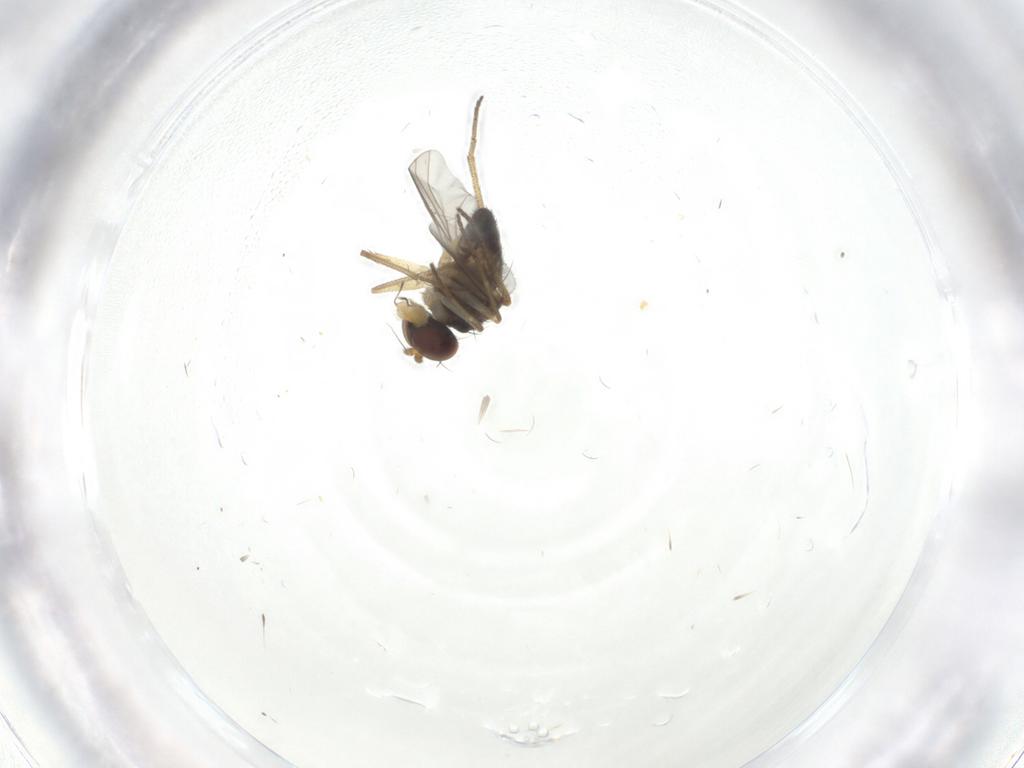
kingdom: Animalia
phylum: Arthropoda
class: Insecta
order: Diptera
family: Dolichopodidae
